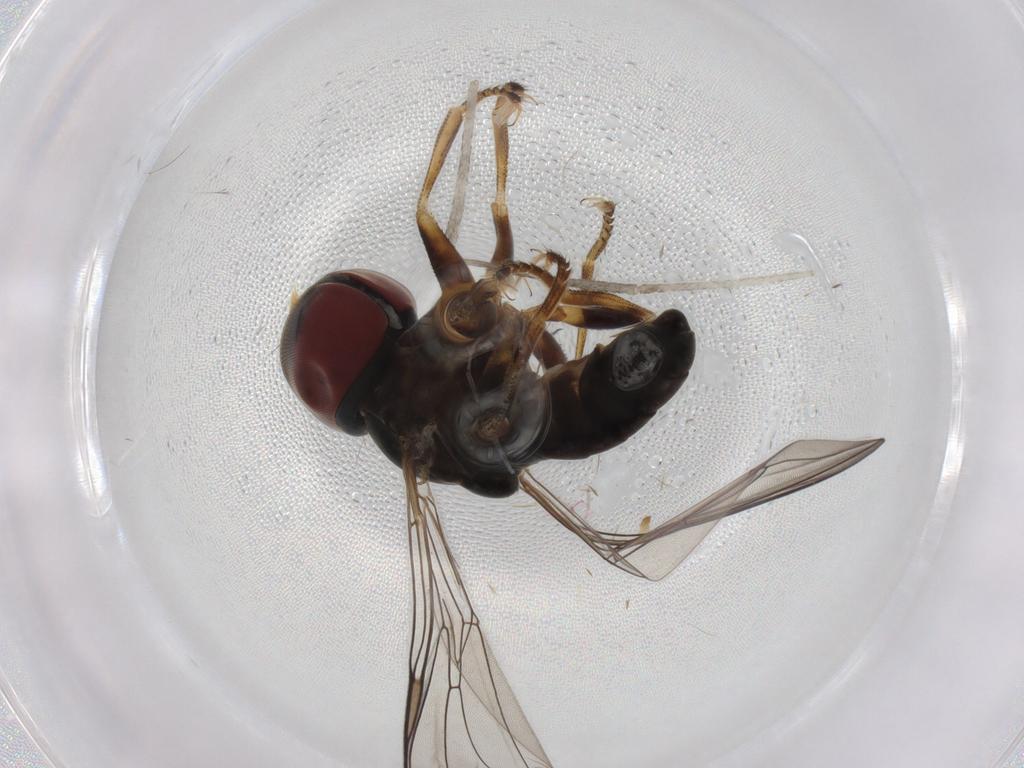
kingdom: Animalia
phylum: Arthropoda
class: Insecta
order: Diptera
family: Pipunculidae
